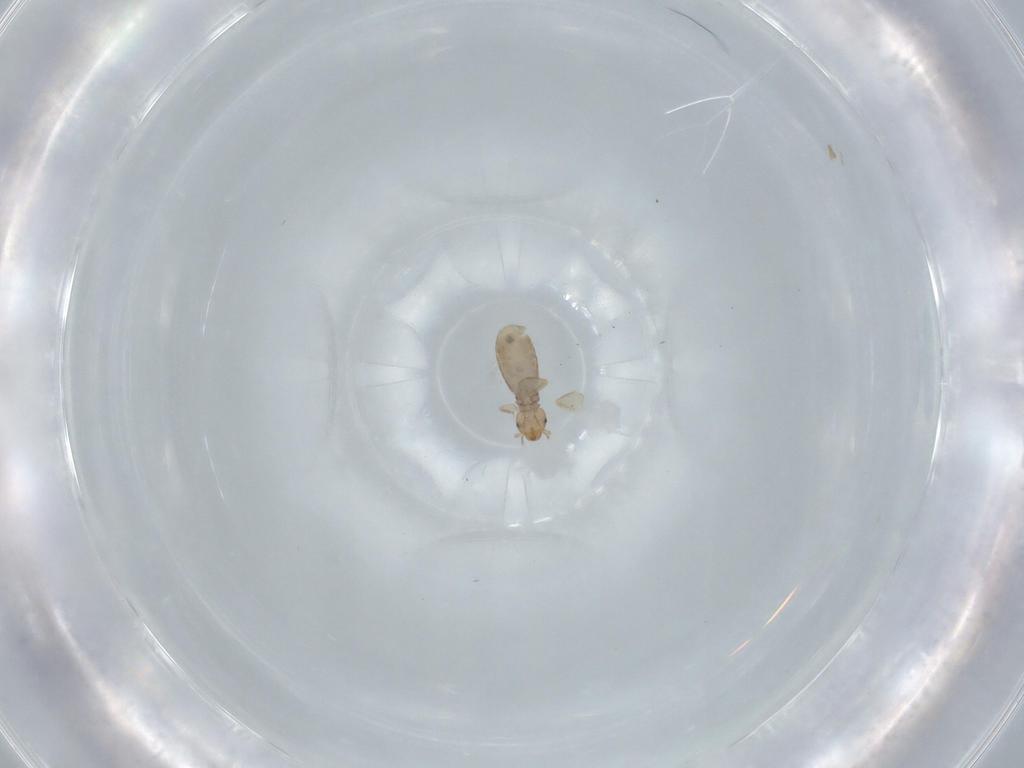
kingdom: Animalia
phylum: Arthropoda
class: Insecta
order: Psocodea
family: Liposcelididae
